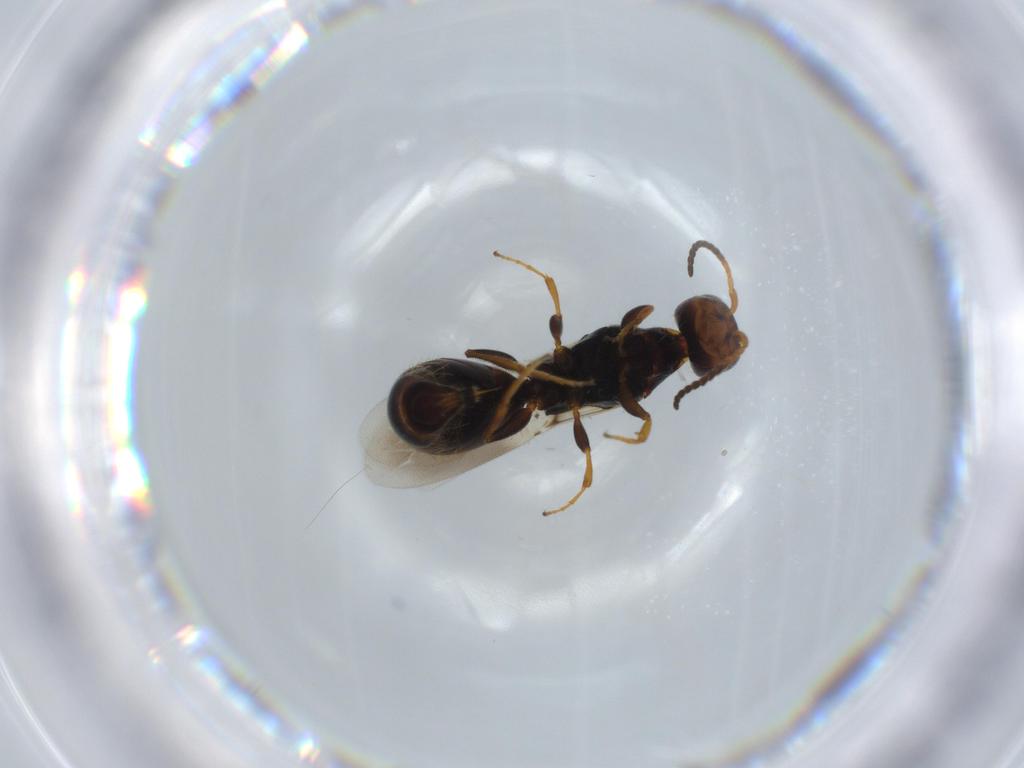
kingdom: Animalia
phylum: Arthropoda
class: Insecta
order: Hymenoptera
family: Bethylidae
